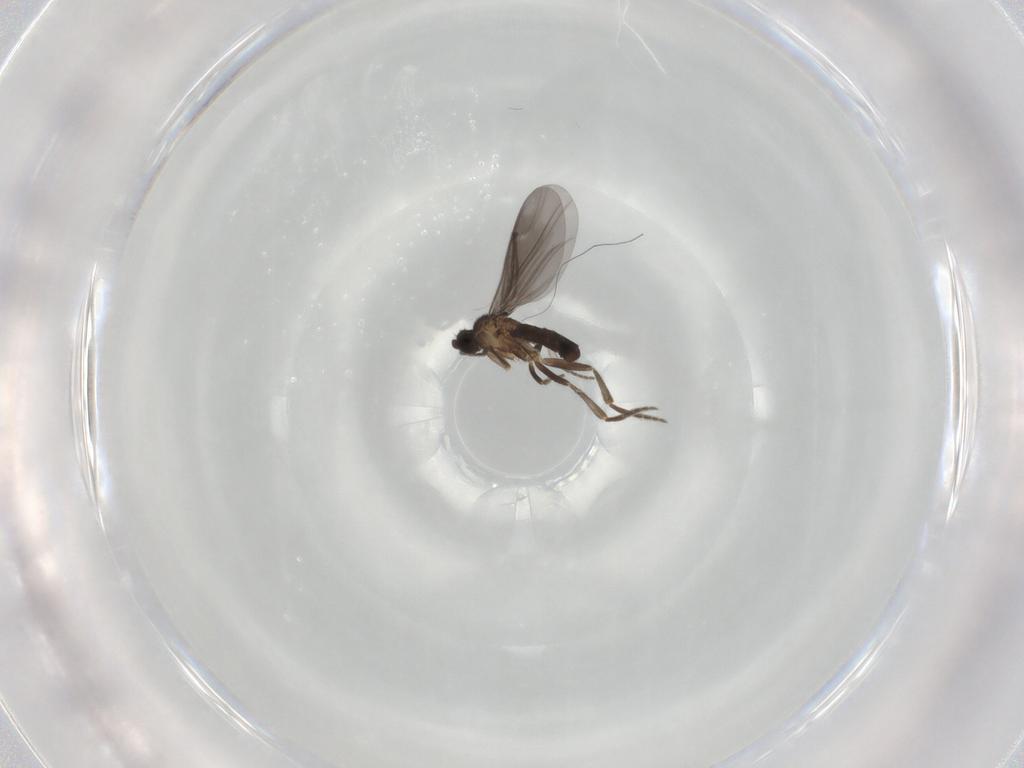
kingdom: Animalia
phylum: Arthropoda
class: Insecta
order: Diptera
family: Phoridae
